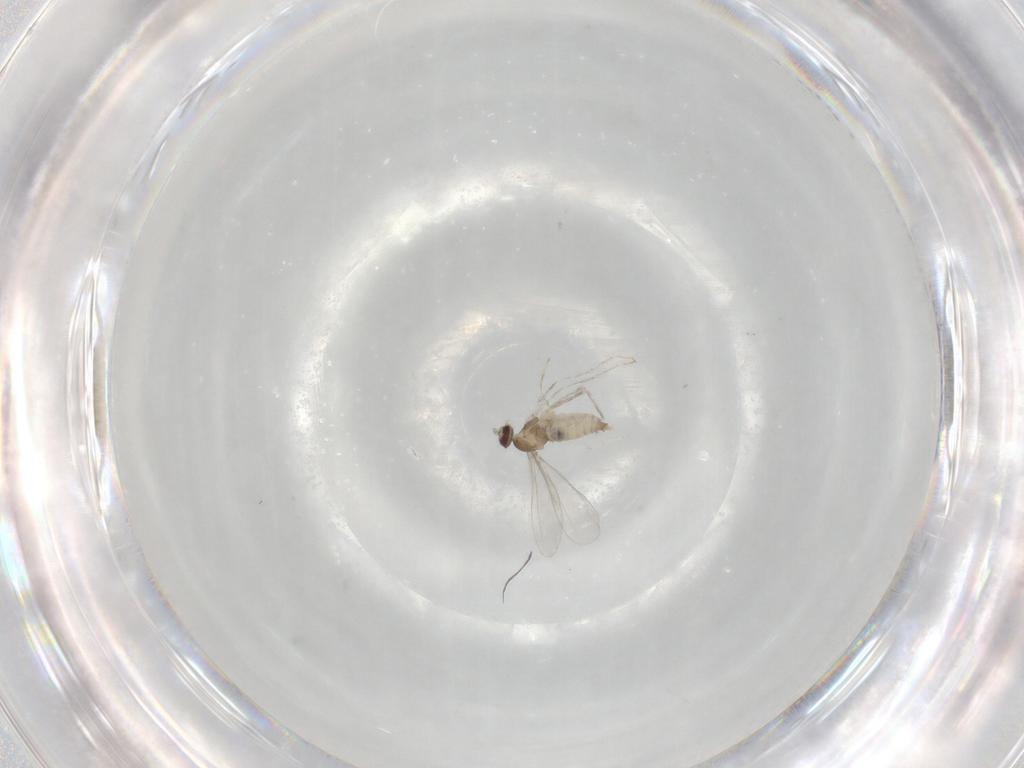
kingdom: Animalia
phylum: Arthropoda
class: Insecta
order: Diptera
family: Cecidomyiidae
